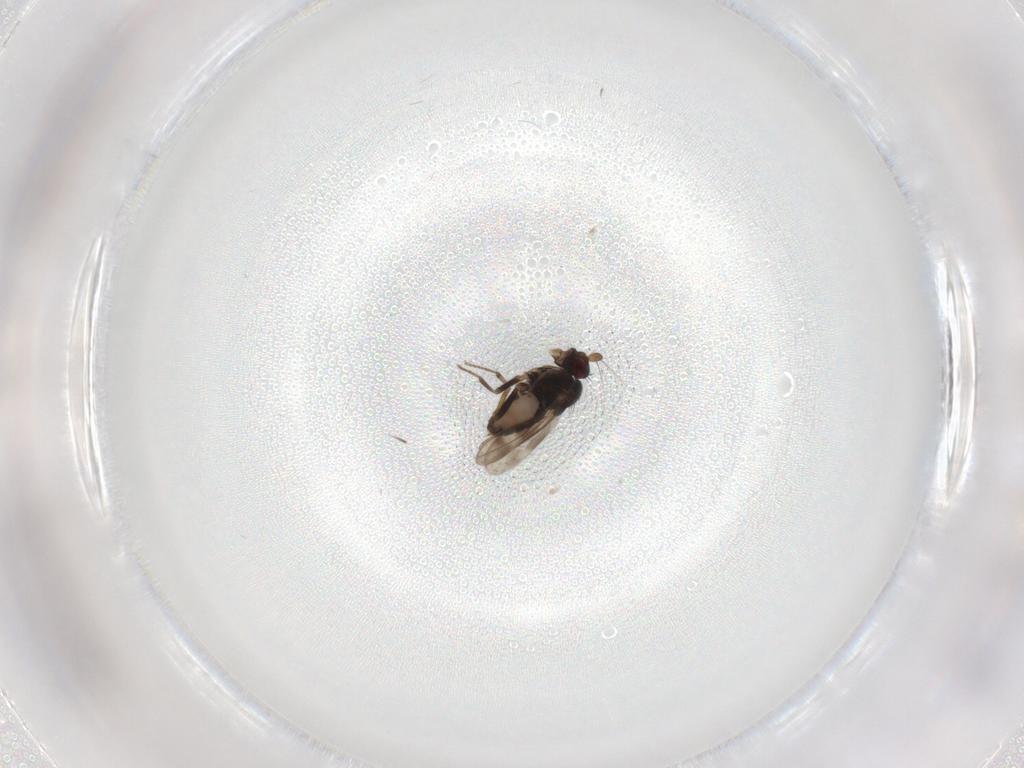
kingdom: Animalia
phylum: Arthropoda
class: Insecta
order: Diptera
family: Cecidomyiidae
